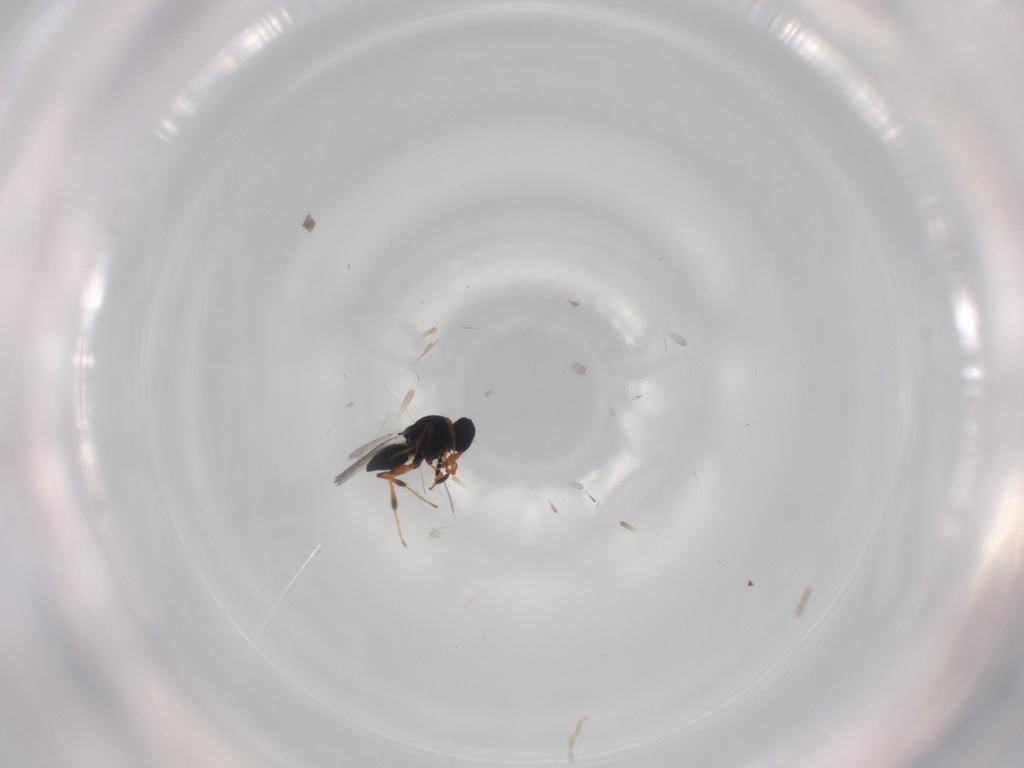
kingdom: Animalia
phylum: Arthropoda
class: Insecta
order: Hymenoptera
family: Platygastridae
